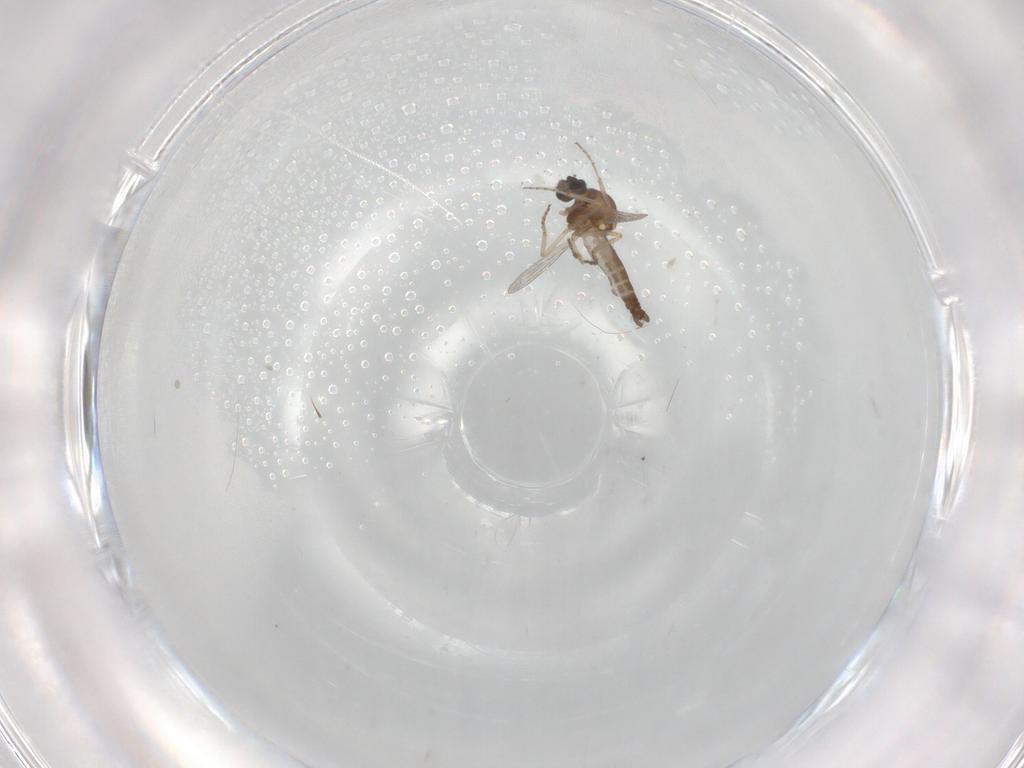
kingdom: Animalia
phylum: Arthropoda
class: Insecta
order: Diptera
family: Ceratopogonidae
